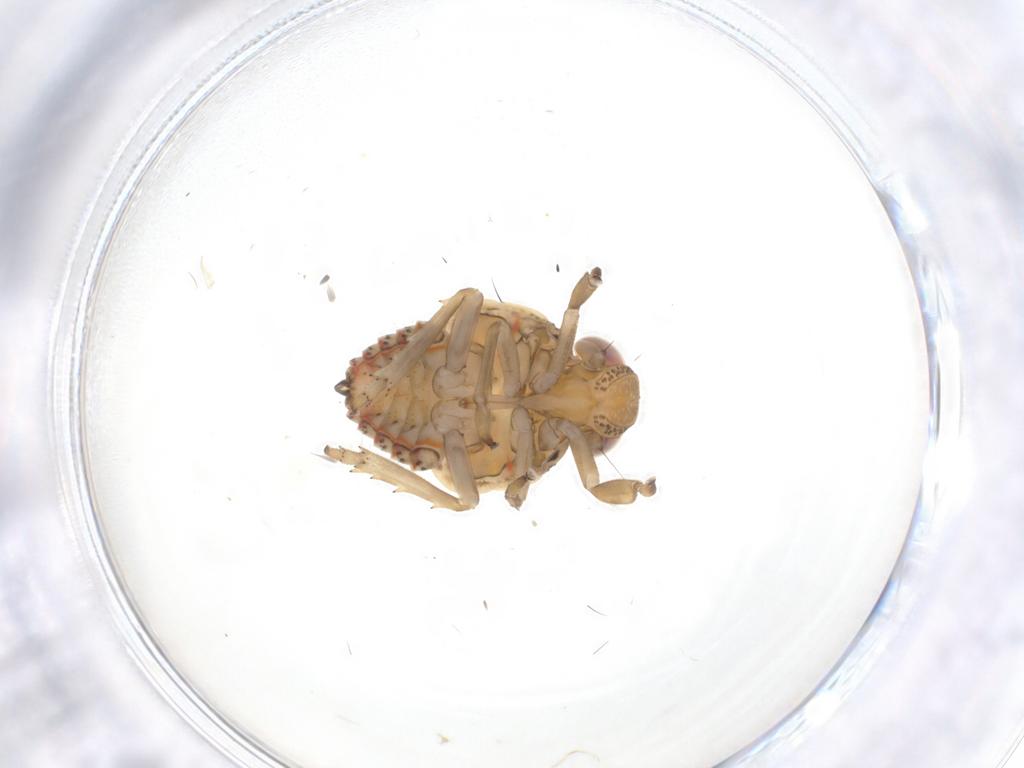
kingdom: Animalia
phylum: Arthropoda
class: Insecta
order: Hemiptera
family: Issidae
